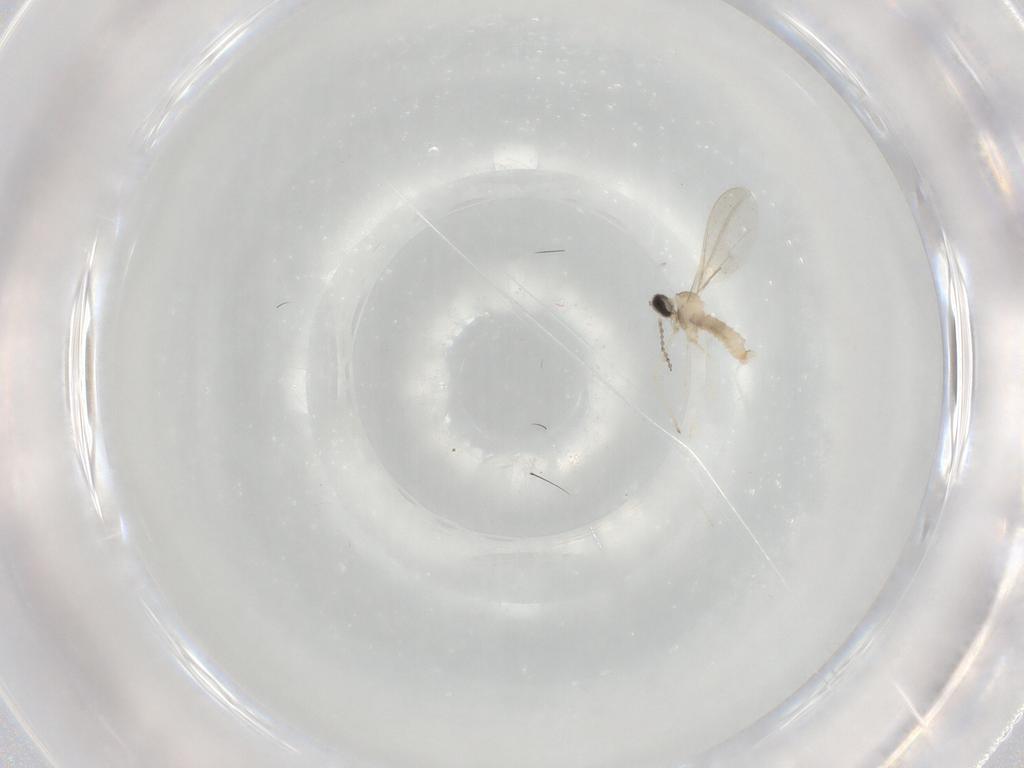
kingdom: Animalia
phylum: Arthropoda
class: Insecta
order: Diptera
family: Cecidomyiidae
